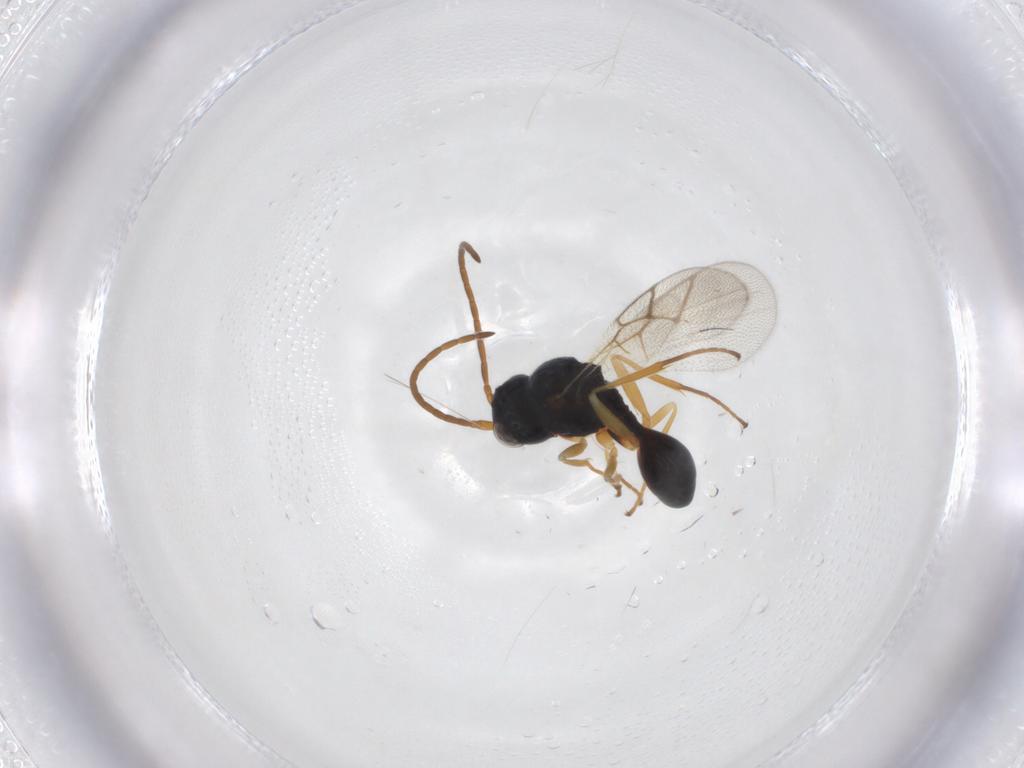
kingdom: Animalia
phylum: Arthropoda
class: Insecta
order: Hymenoptera
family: Figitidae
